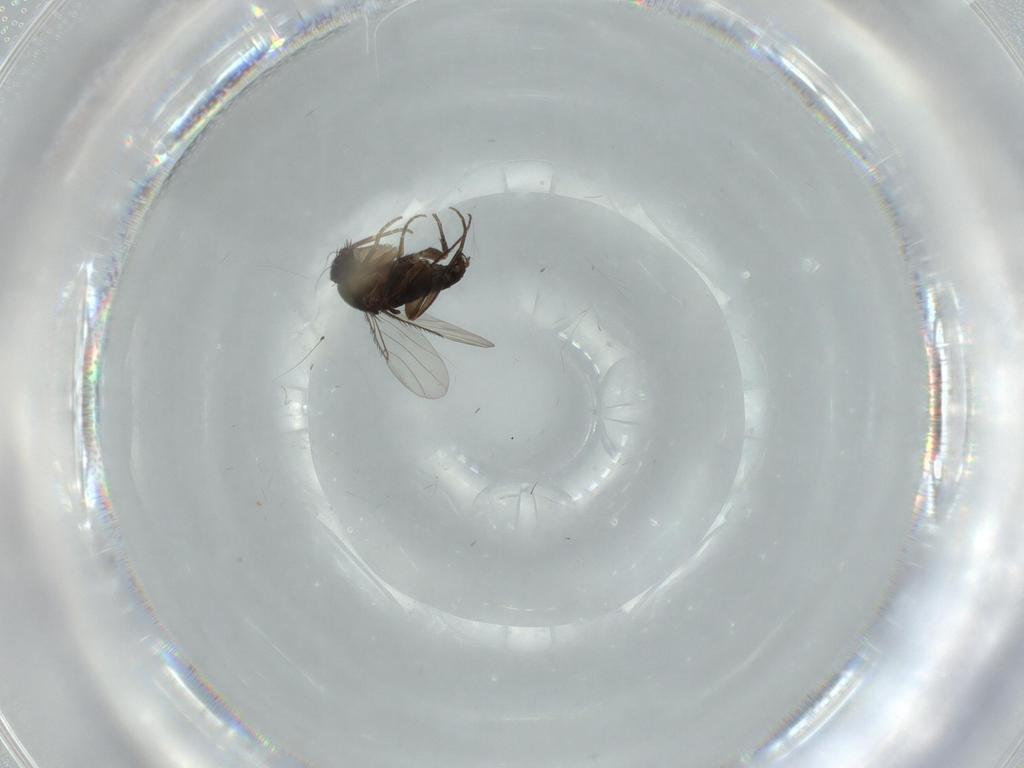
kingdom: Animalia
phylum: Arthropoda
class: Insecta
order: Diptera
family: Phoridae
